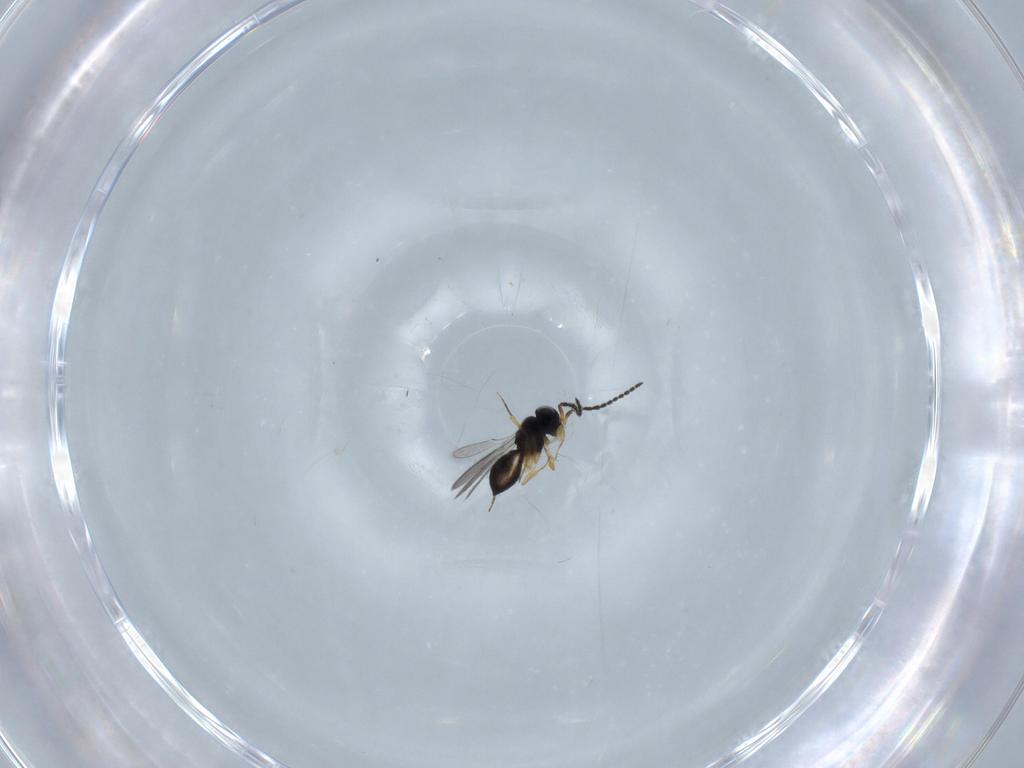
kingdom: Animalia
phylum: Arthropoda
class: Insecta
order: Hymenoptera
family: Scelionidae
